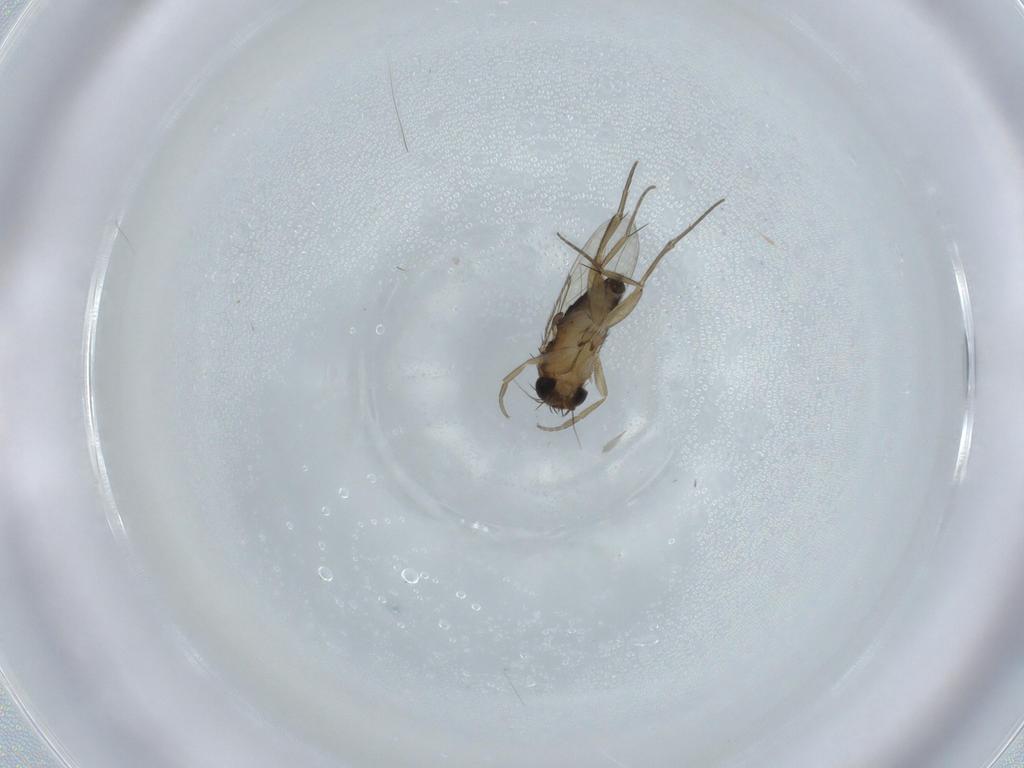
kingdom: Animalia
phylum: Arthropoda
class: Insecta
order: Diptera
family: Phoridae
